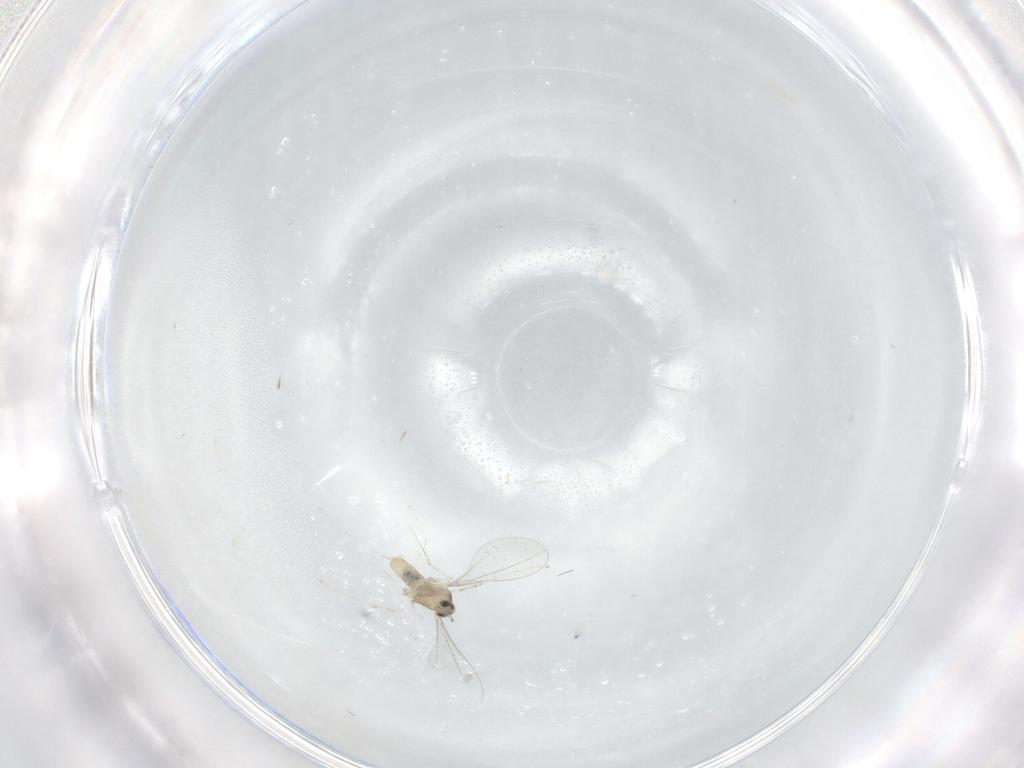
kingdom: Animalia
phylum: Arthropoda
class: Insecta
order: Diptera
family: Cecidomyiidae
